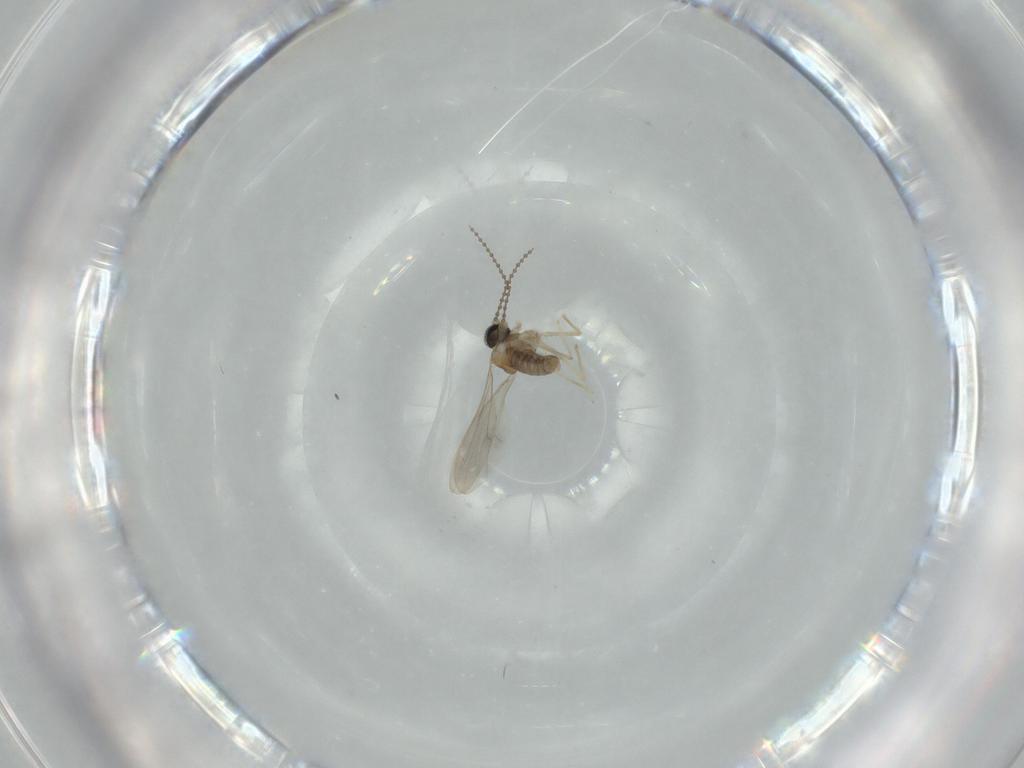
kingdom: Animalia
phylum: Arthropoda
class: Insecta
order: Diptera
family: Cecidomyiidae
